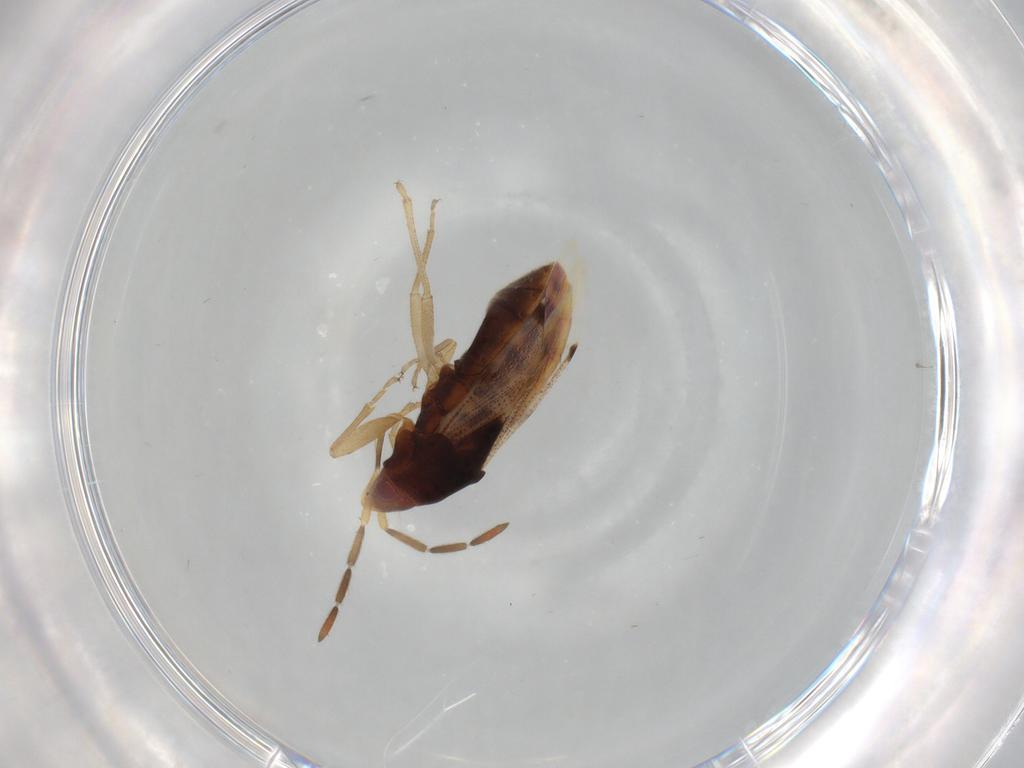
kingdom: Animalia
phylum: Arthropoda
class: Insecta
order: Hemiptera
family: Rhyparochromidae
